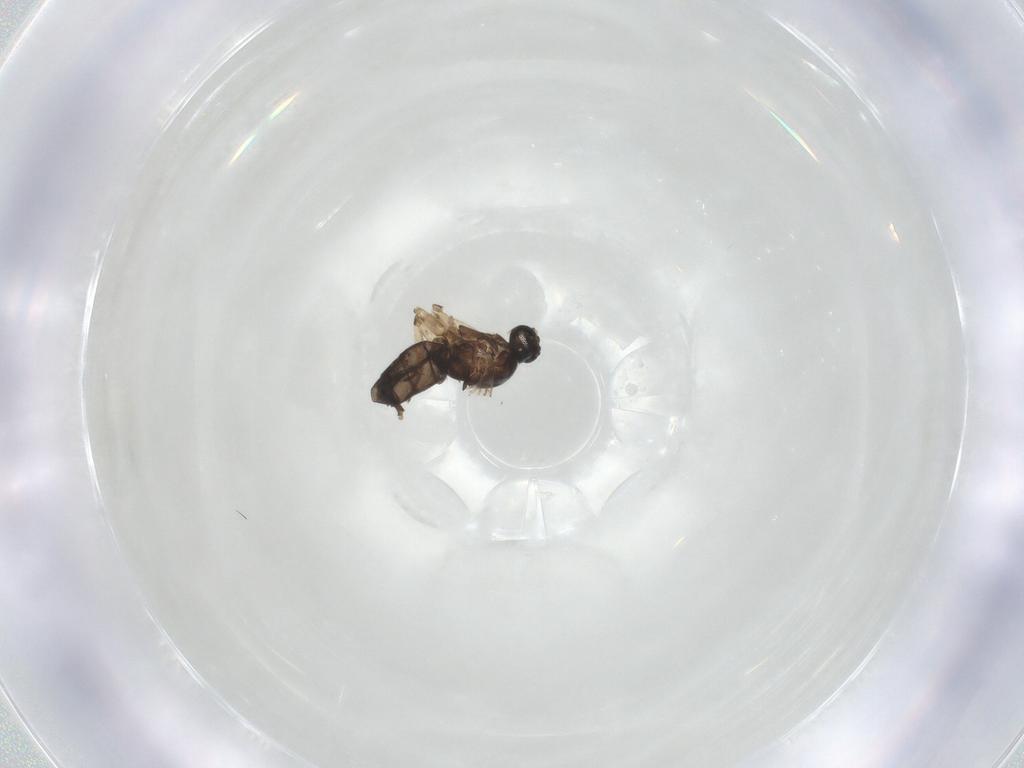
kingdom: Animalia
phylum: Arthropoda
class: Insecta
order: Diptera
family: Sciaridae
